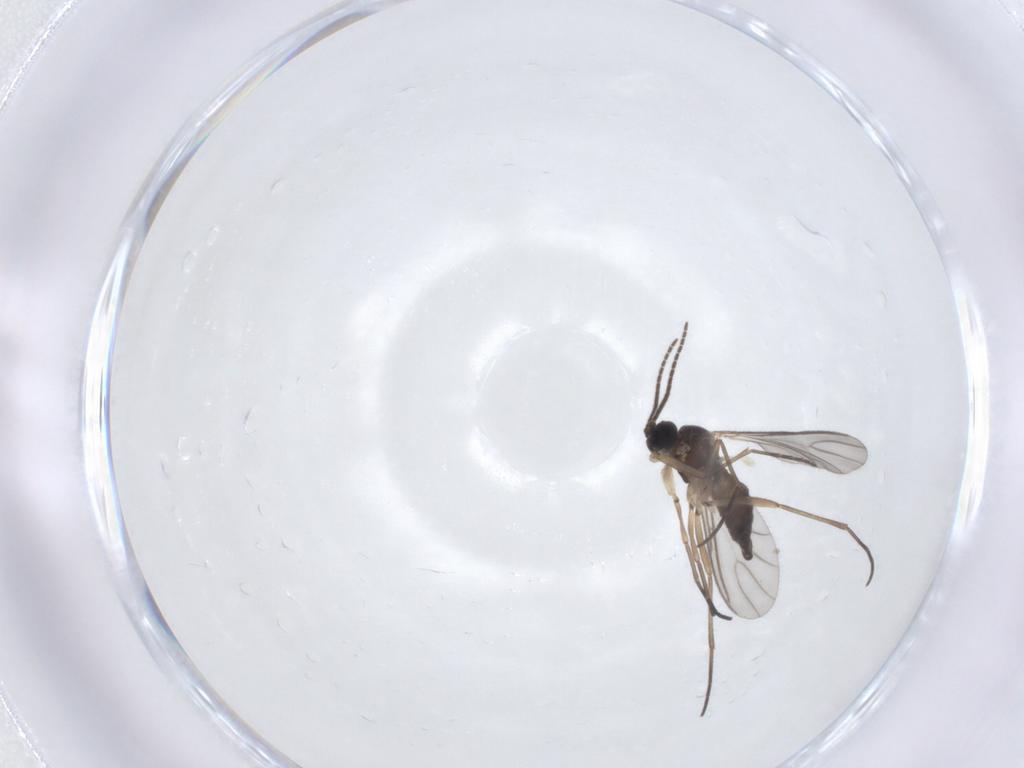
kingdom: Animalia
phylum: Arthropoda
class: Insecta
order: Diptera
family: Sciaridae
